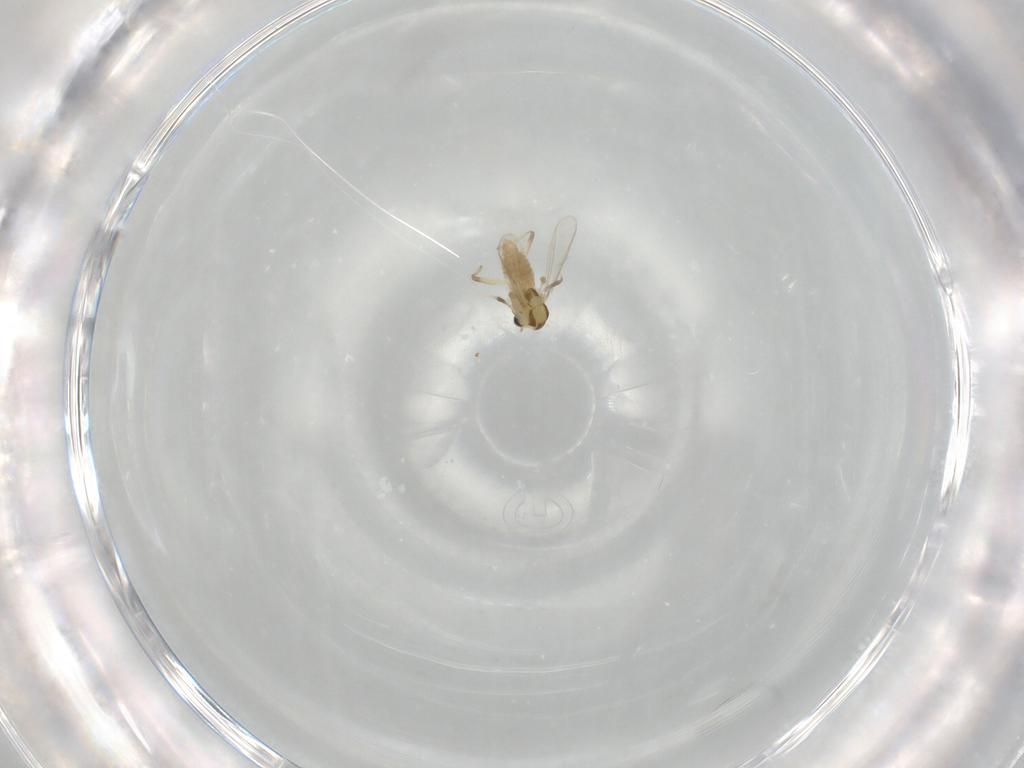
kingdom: Animalia
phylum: Arthropoda
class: Insecta
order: Diptera
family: Chironomidae
